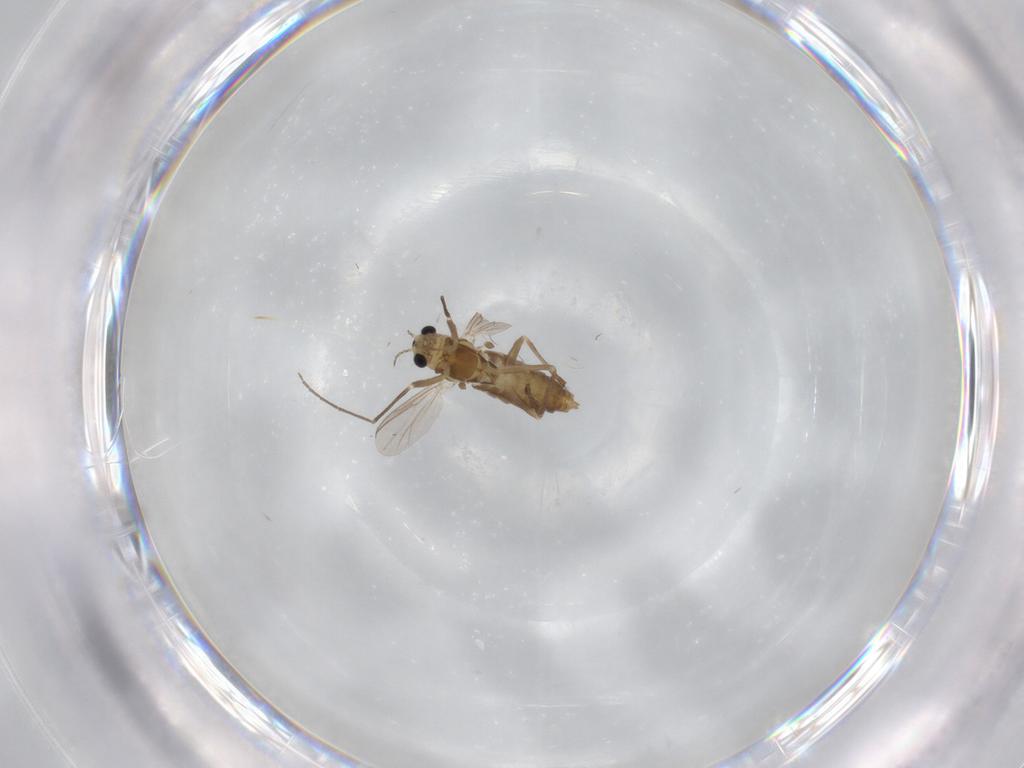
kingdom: Animalia
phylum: Arthropoda
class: Insecta
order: Diptera
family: Chironomidae
